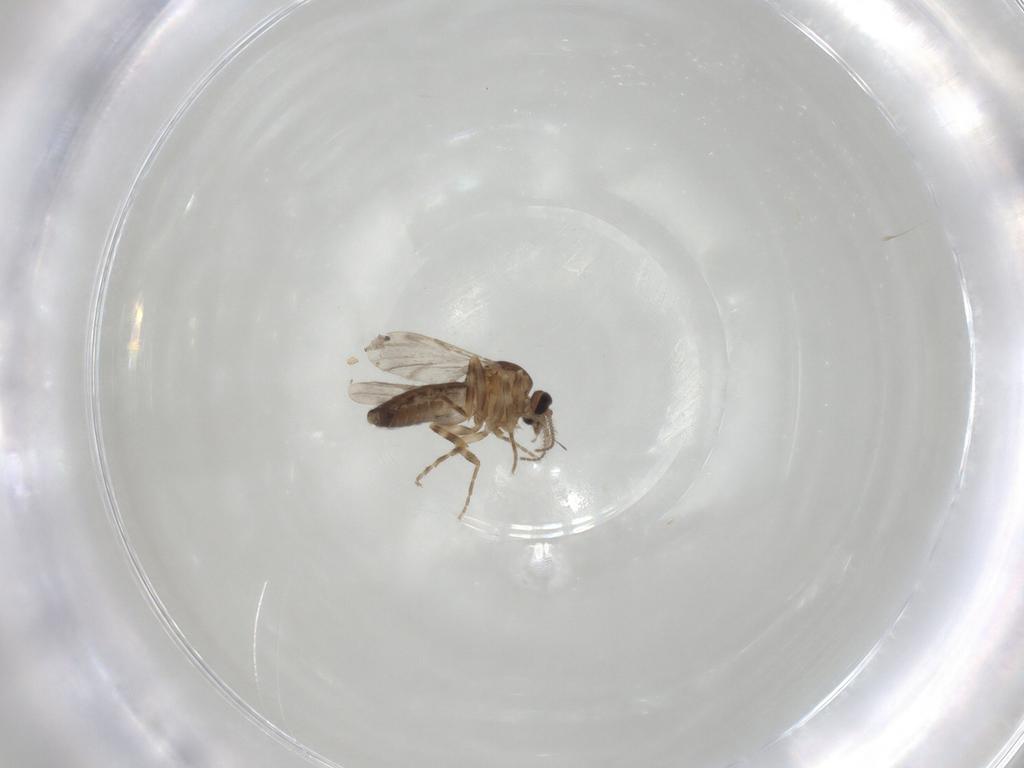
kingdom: Animalia
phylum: Arthropoda
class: Insecta
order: Diptera
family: Ceratopogonidae
